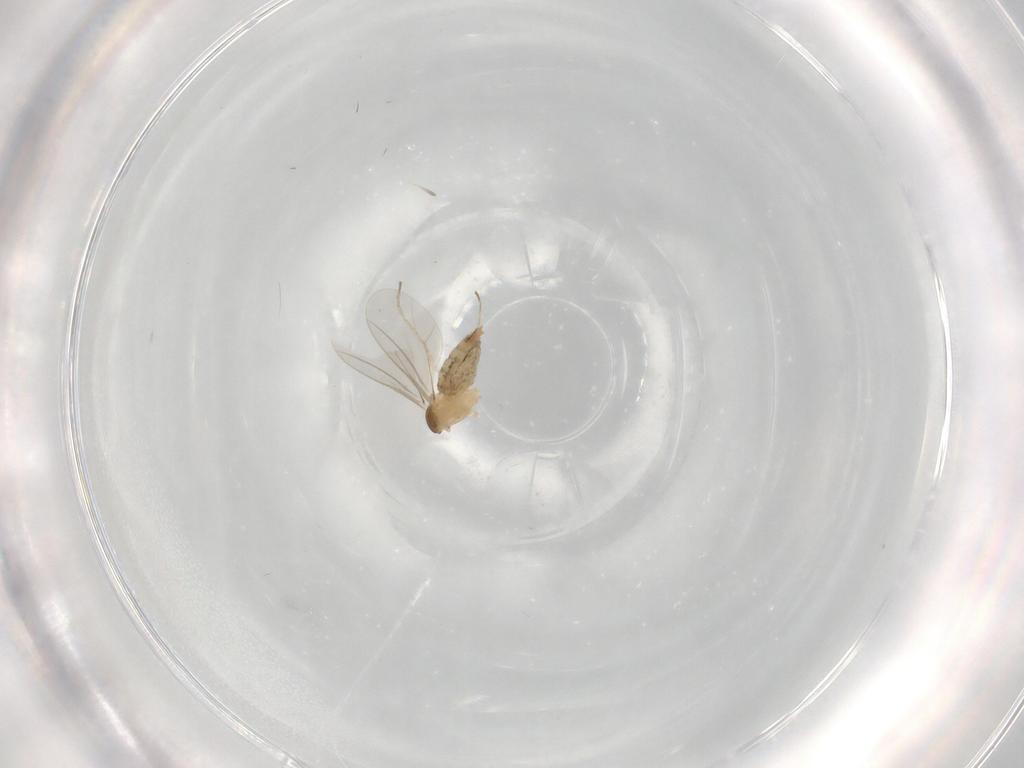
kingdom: Animalia
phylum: Arthropoda
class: Insecta
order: Diptera
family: Cecidomyiidae
